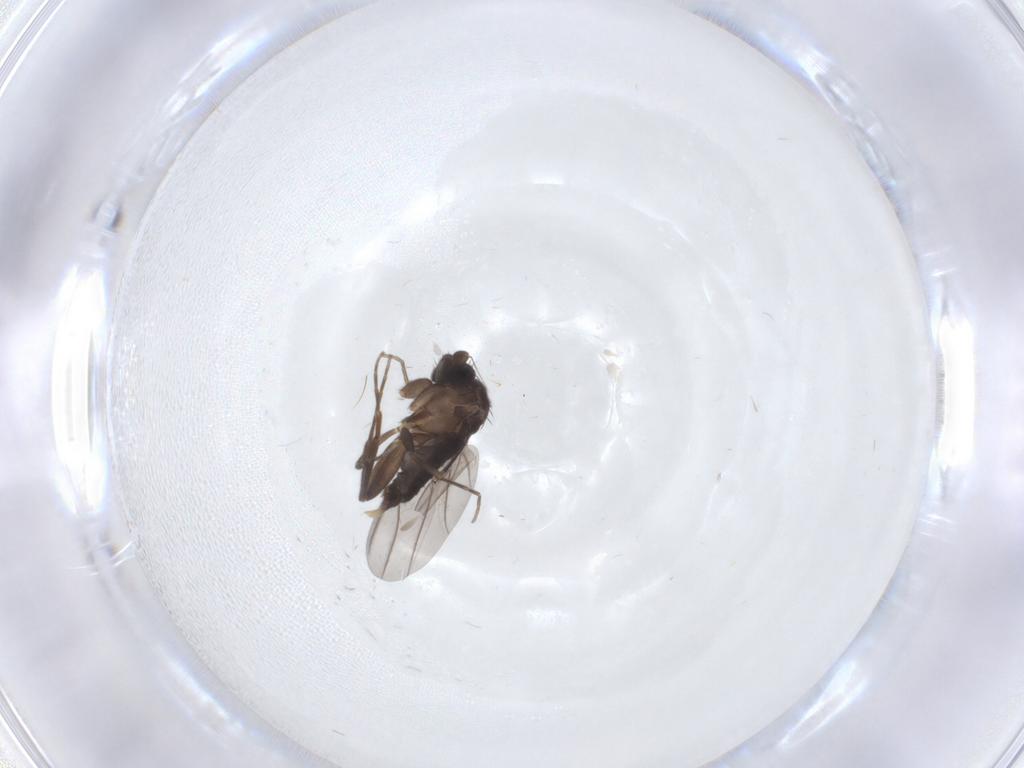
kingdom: Animalia
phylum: Arthropoda
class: Insecta
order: Diptera
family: Phoridae
